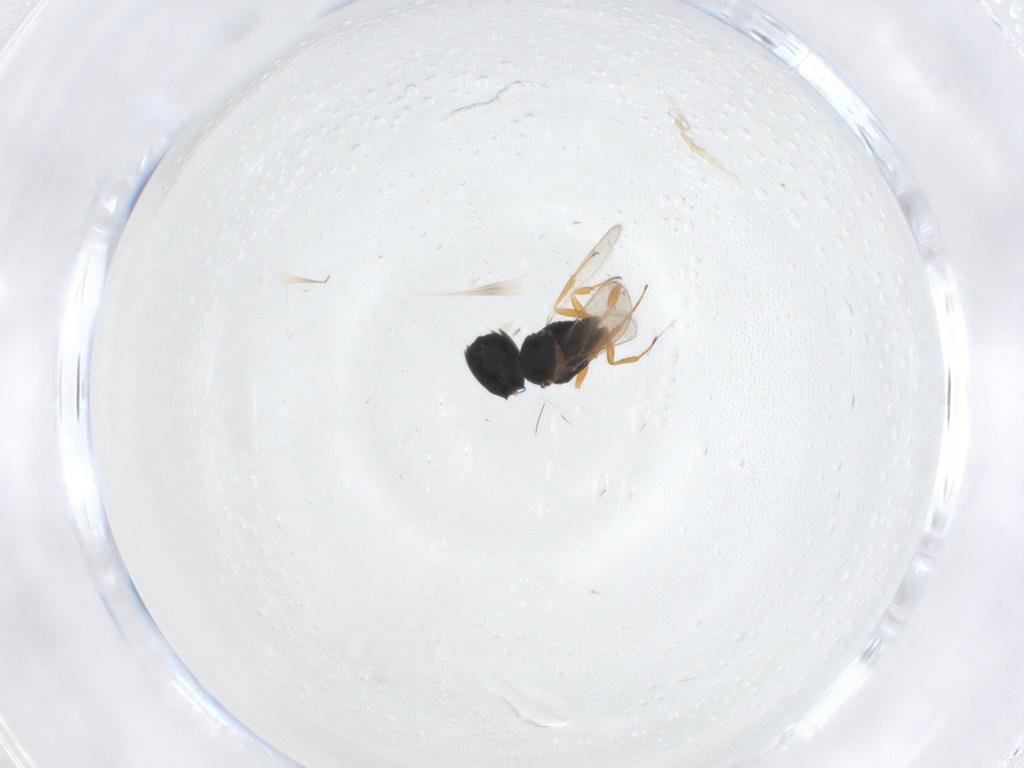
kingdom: Animalia
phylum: Arthropoda
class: Insecta
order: Hymenoptera
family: Scelionidae
